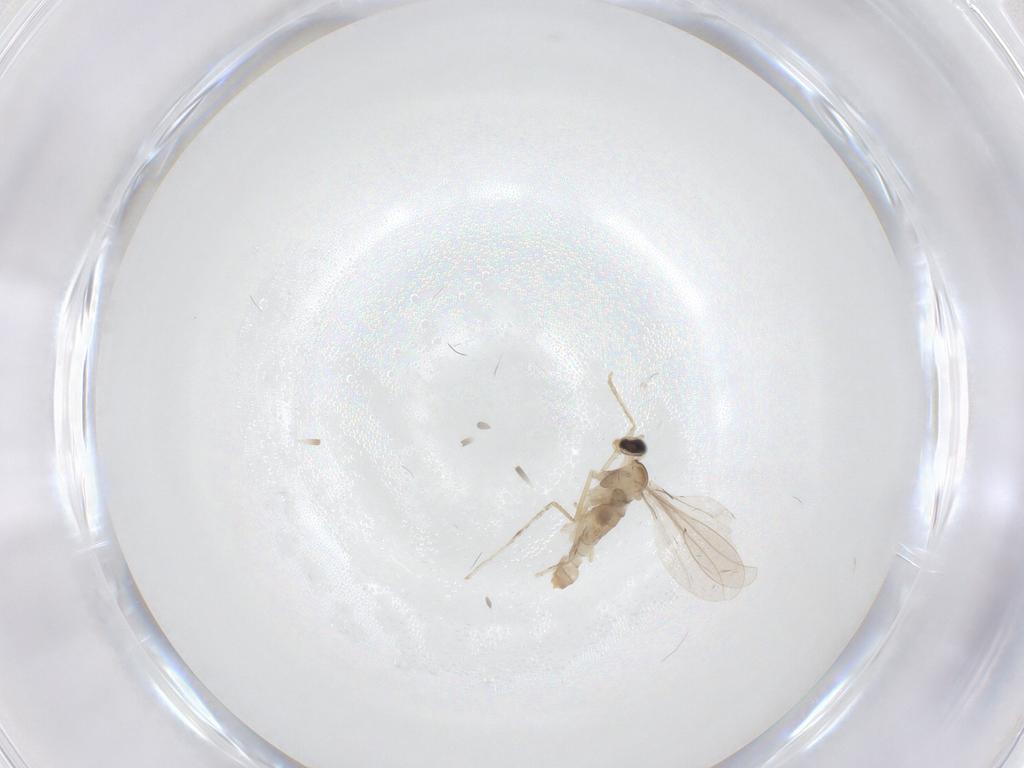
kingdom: Animalia
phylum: Arthropoda
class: Insecta
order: Diptera
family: Cecidomyiidae
